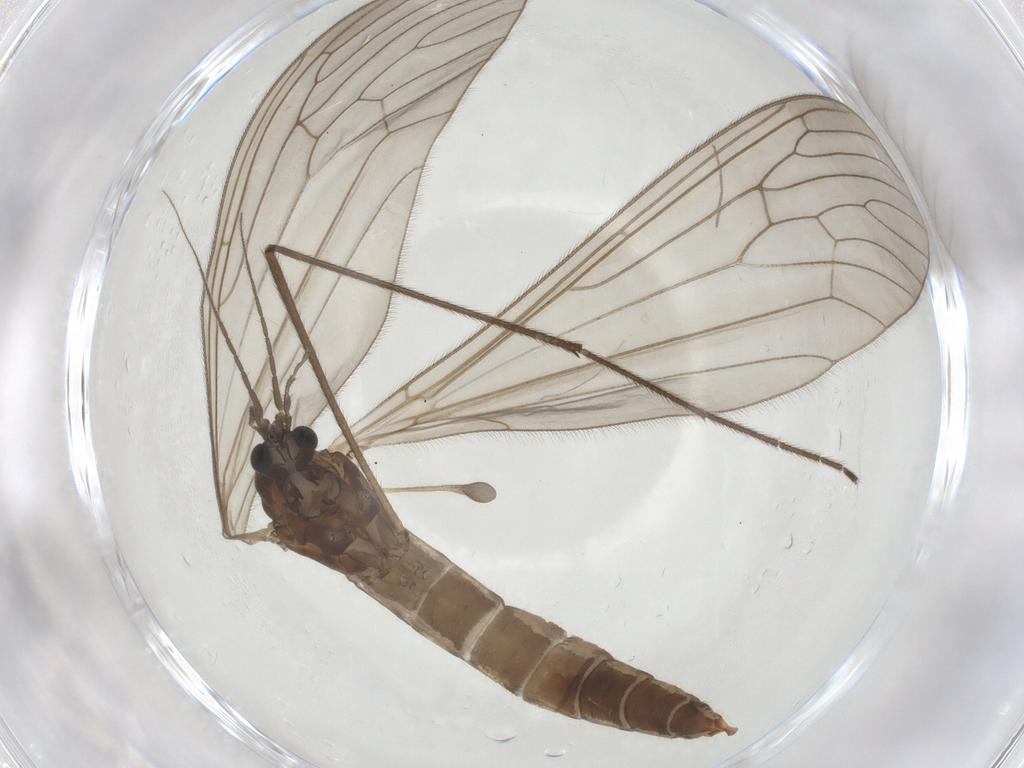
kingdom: Animalia
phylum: Arthropoda
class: Insecta
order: Diptera
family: Trichoceridae
